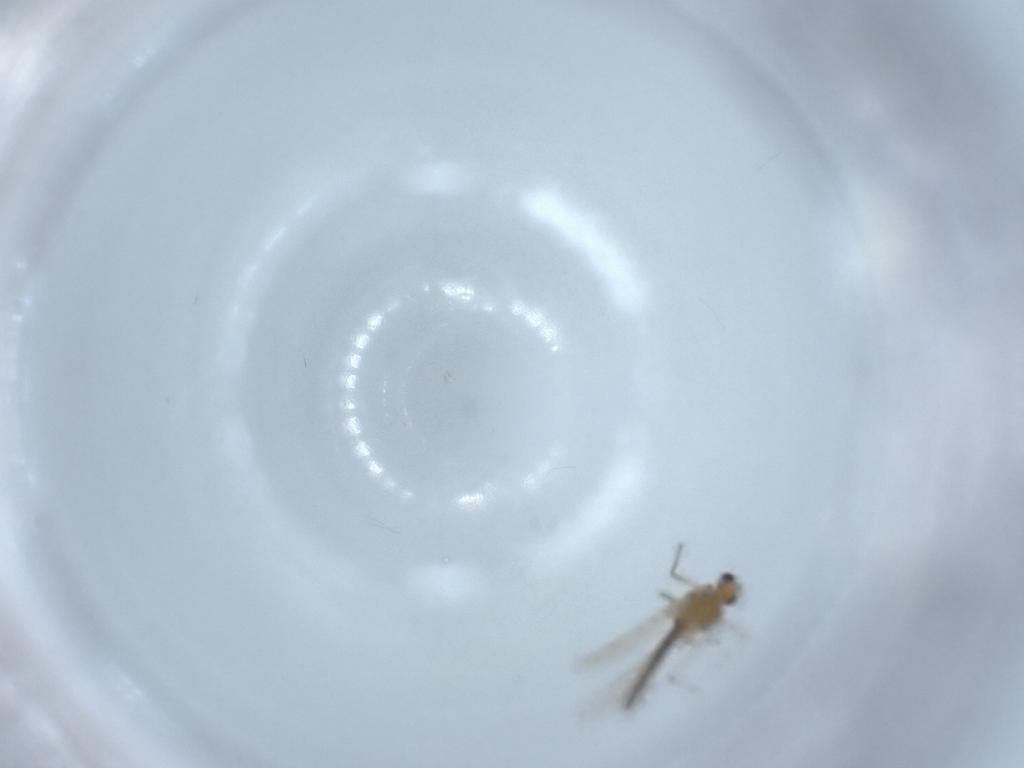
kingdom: Animalia
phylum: Arthropoda
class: Insecta
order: Diptera
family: Chironomidae
